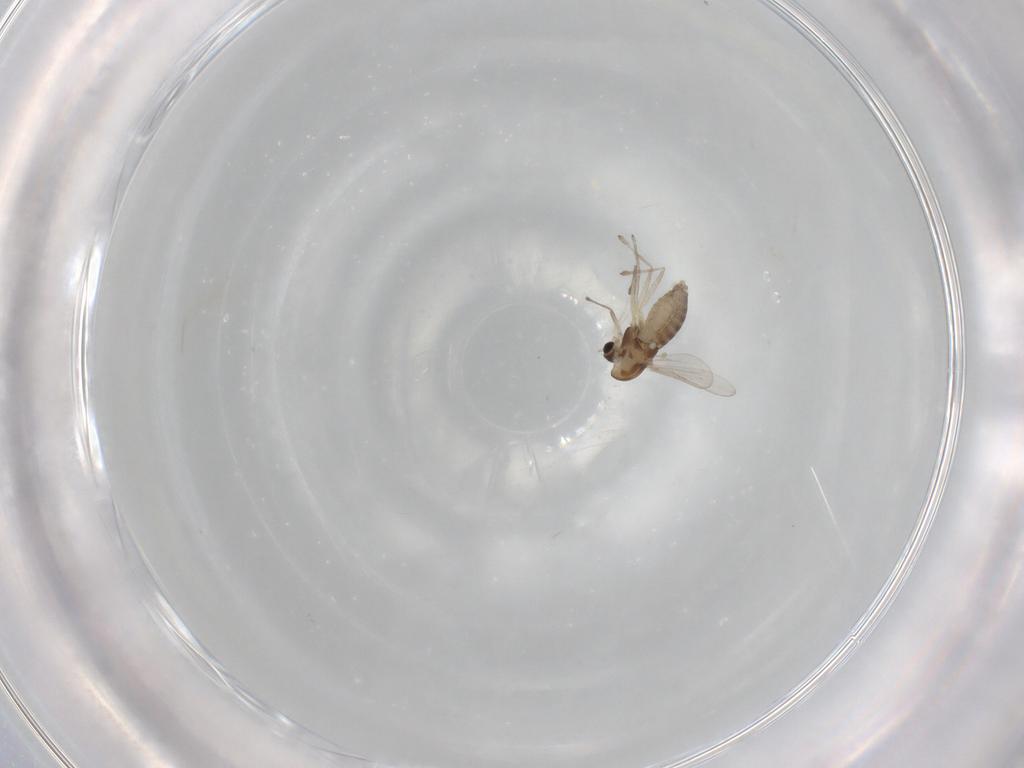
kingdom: Animalia
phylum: Arthropoda
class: Insecta
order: Diptera
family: Chironomidae
